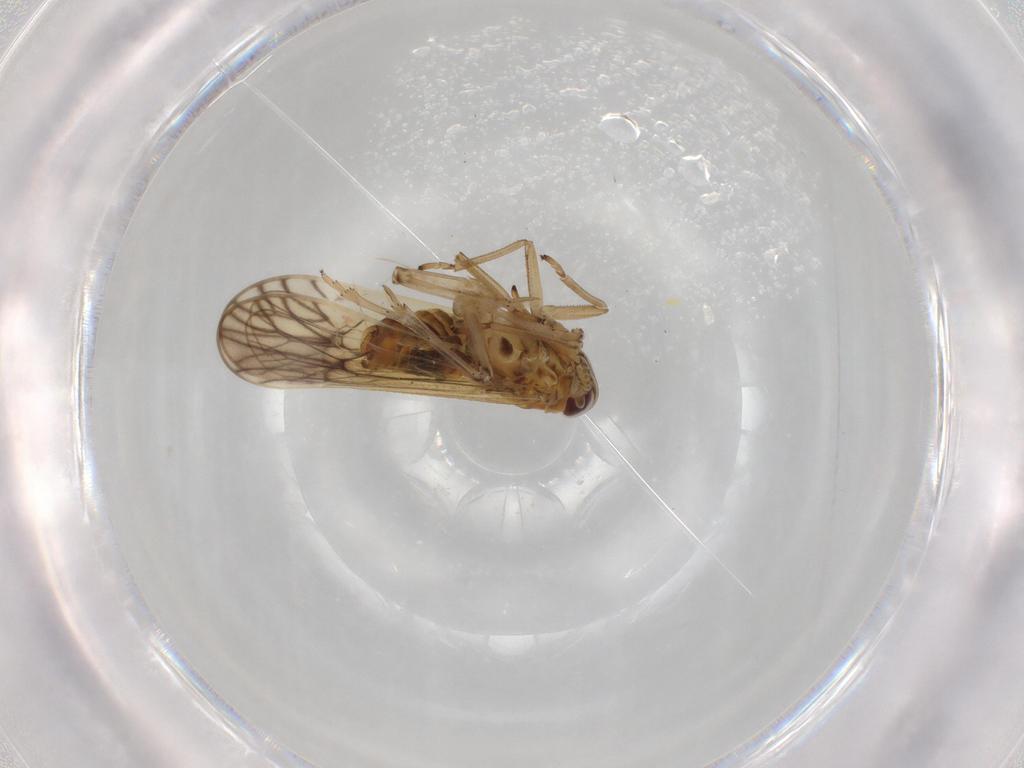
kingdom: Animalia
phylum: Arthropoda
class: Insecta
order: Hemiptera
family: Delphacidae
